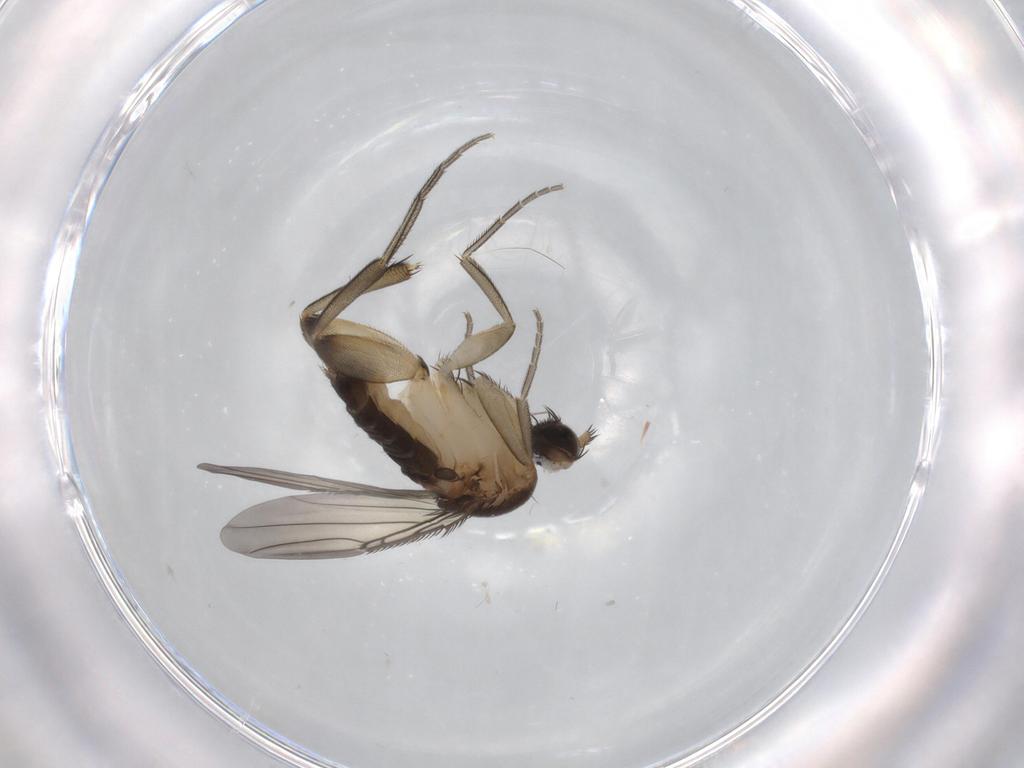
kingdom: Animalia
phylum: Arthropoda
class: Insecta
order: Diptera
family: Phoridae
